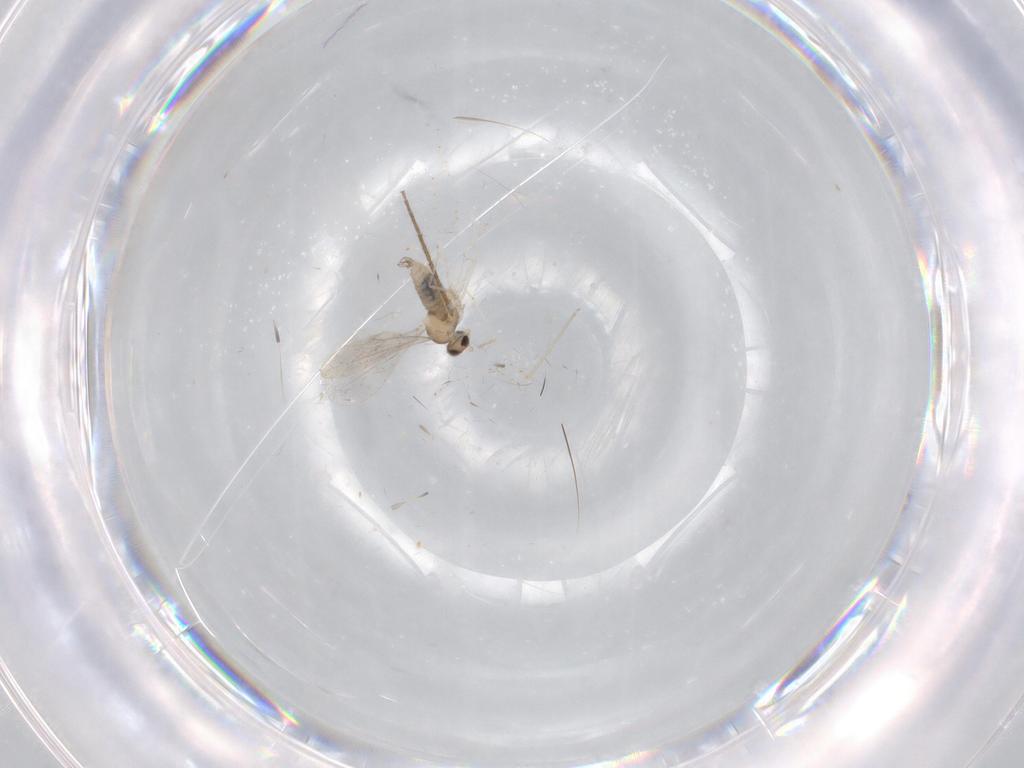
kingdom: Animalia
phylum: Arthropoda
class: Insecta
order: Diptera
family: Cecidomyiidae
